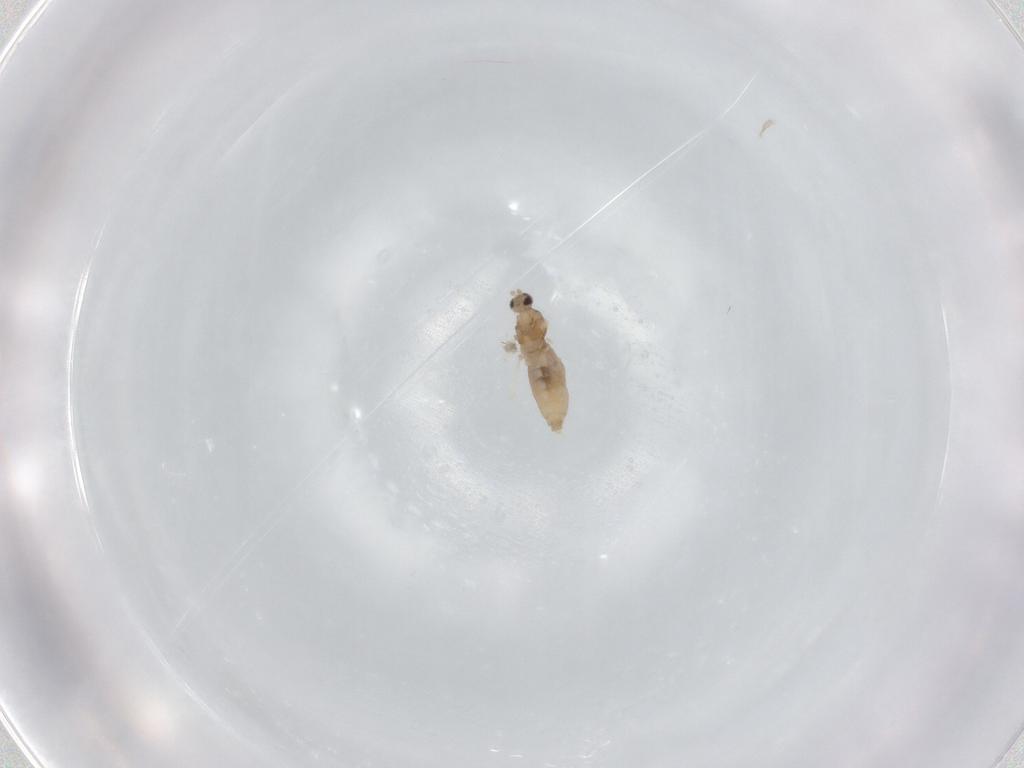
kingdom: Animalia
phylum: Arthropoda
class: Insecta
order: Diptera
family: Cecidomyiidae
